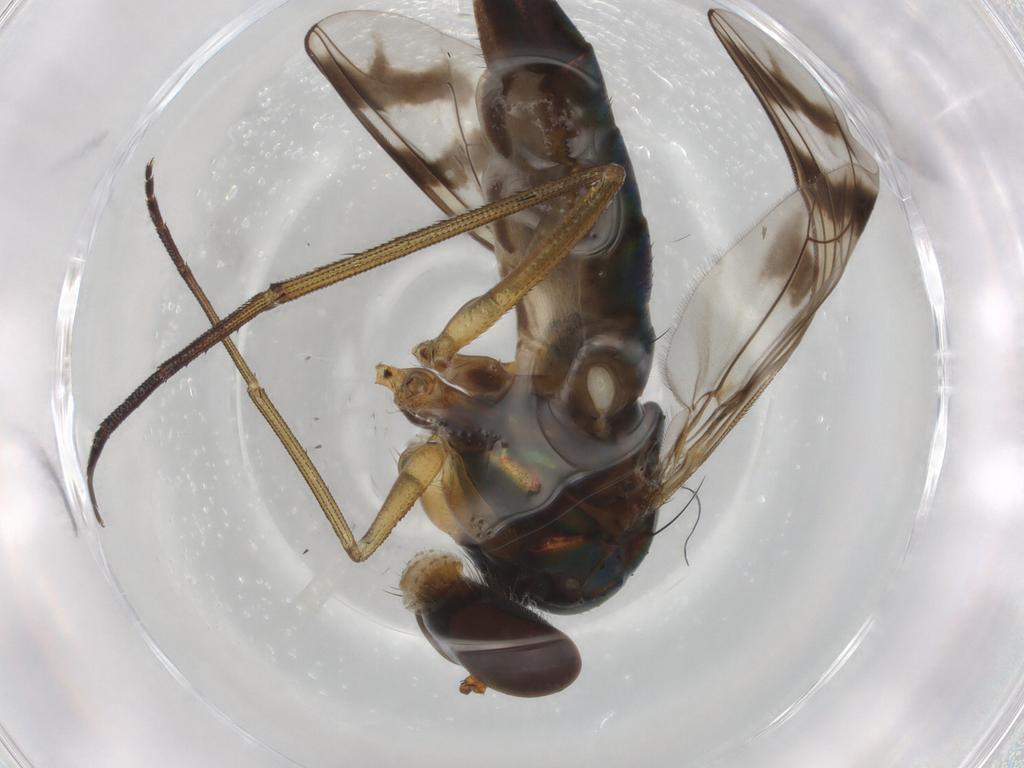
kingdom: Animalia
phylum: Arthropoda
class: Insecta
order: Diptera
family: Dolichopodidae
